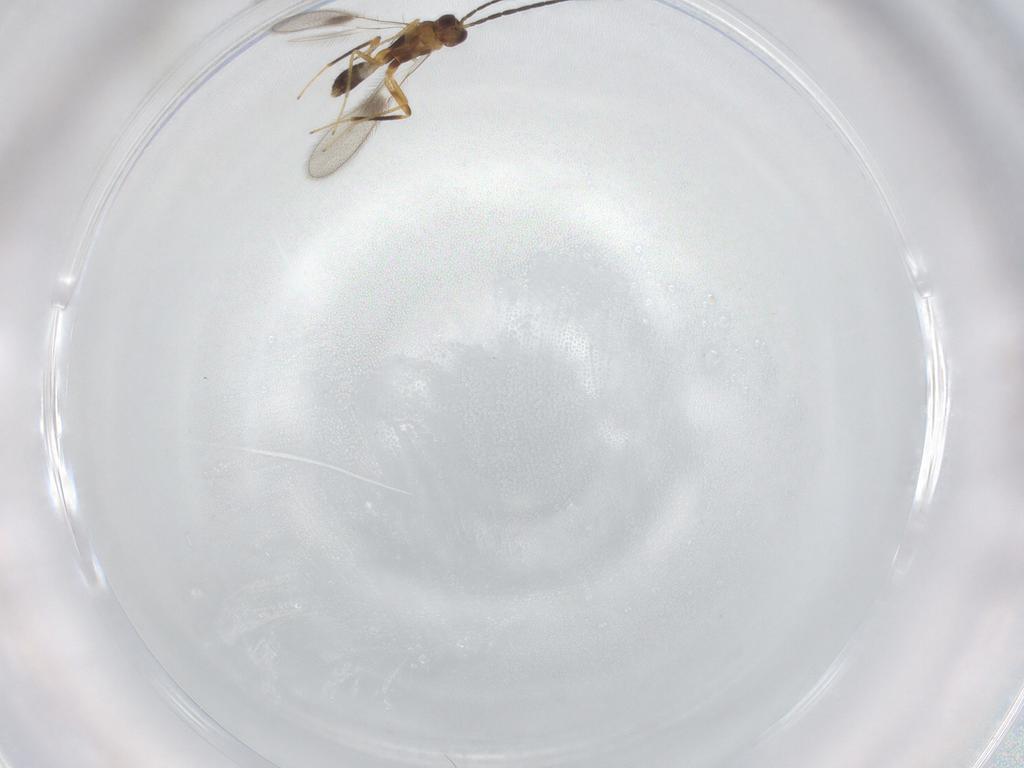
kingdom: Animalia
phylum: Arthropoda
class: Insecta
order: Hymenoptera
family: Mymaridae
